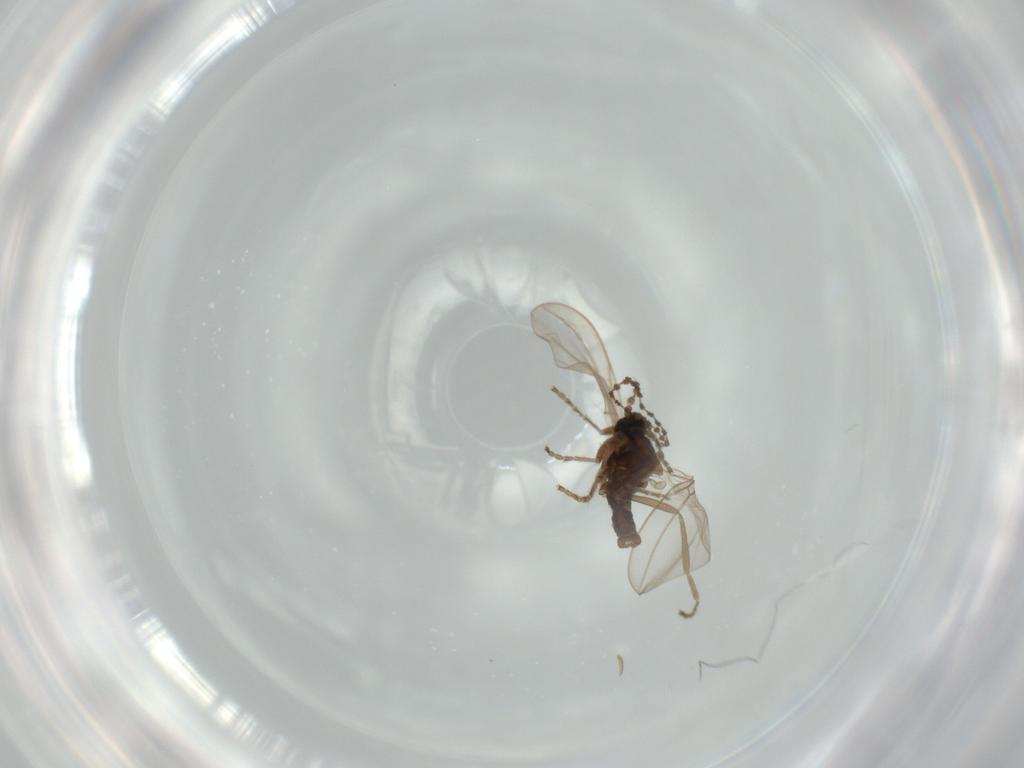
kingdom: Animalia
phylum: Arthropoda
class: Insecta
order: Diptera
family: Cecidomyiidae
